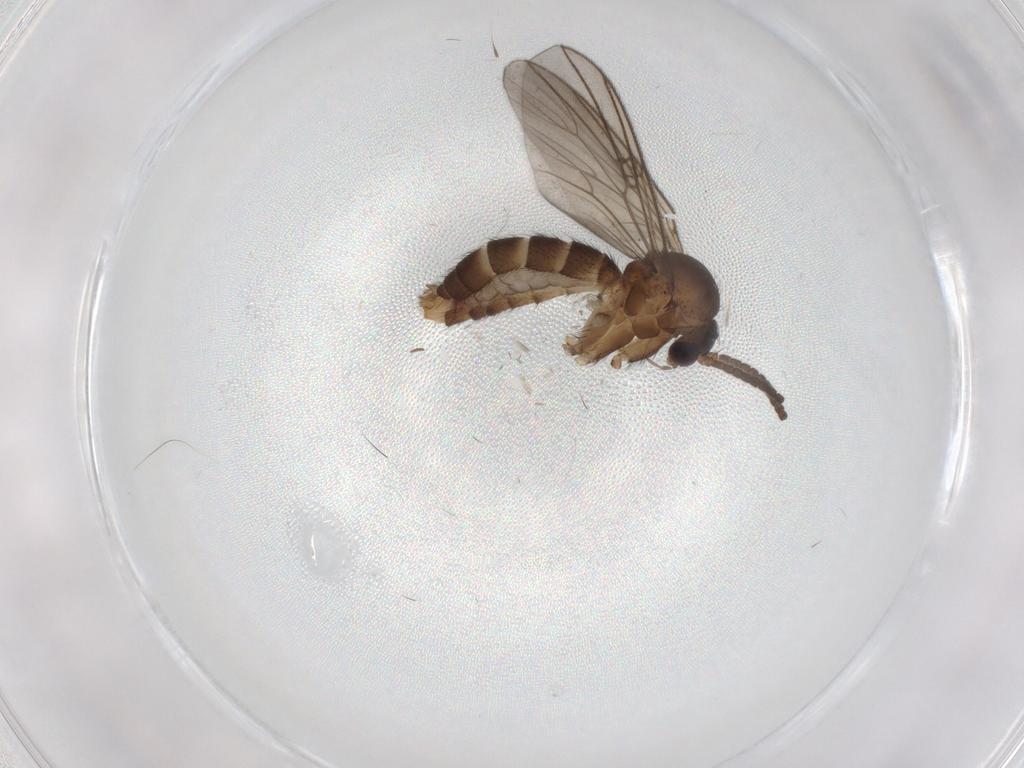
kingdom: Animalia
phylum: Arthropoda
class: Insecta
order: Diptera
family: Mycetophilidae
